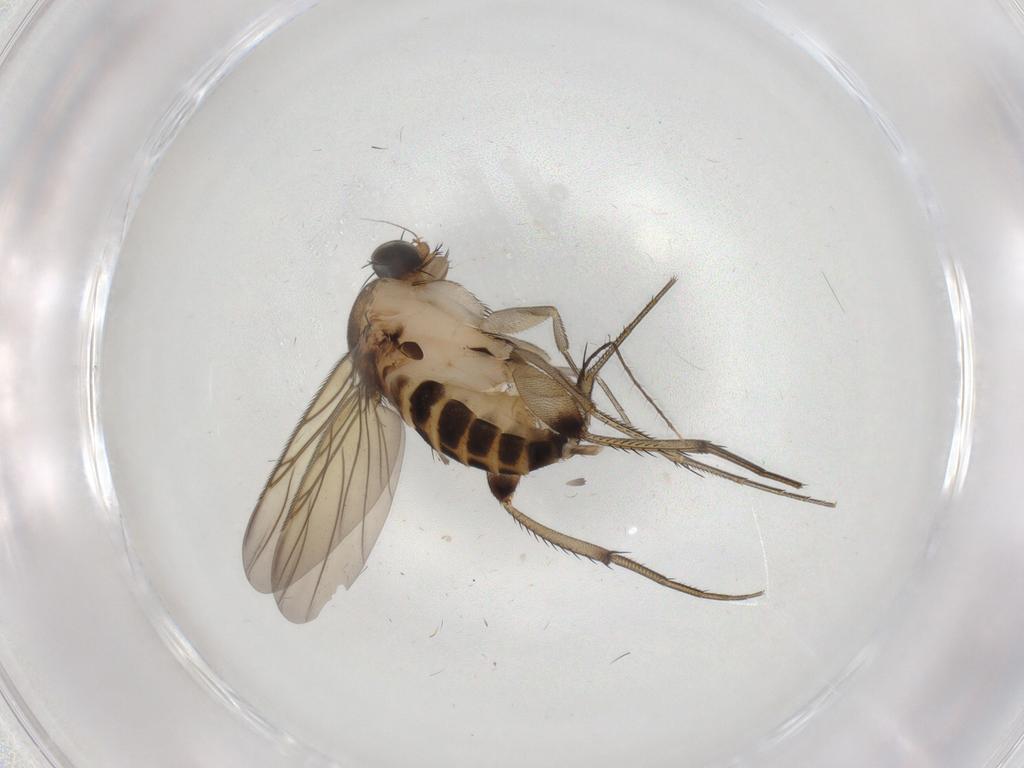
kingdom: Animalia
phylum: Arthropoda
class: Insecta
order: Diptera
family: Phoridae
